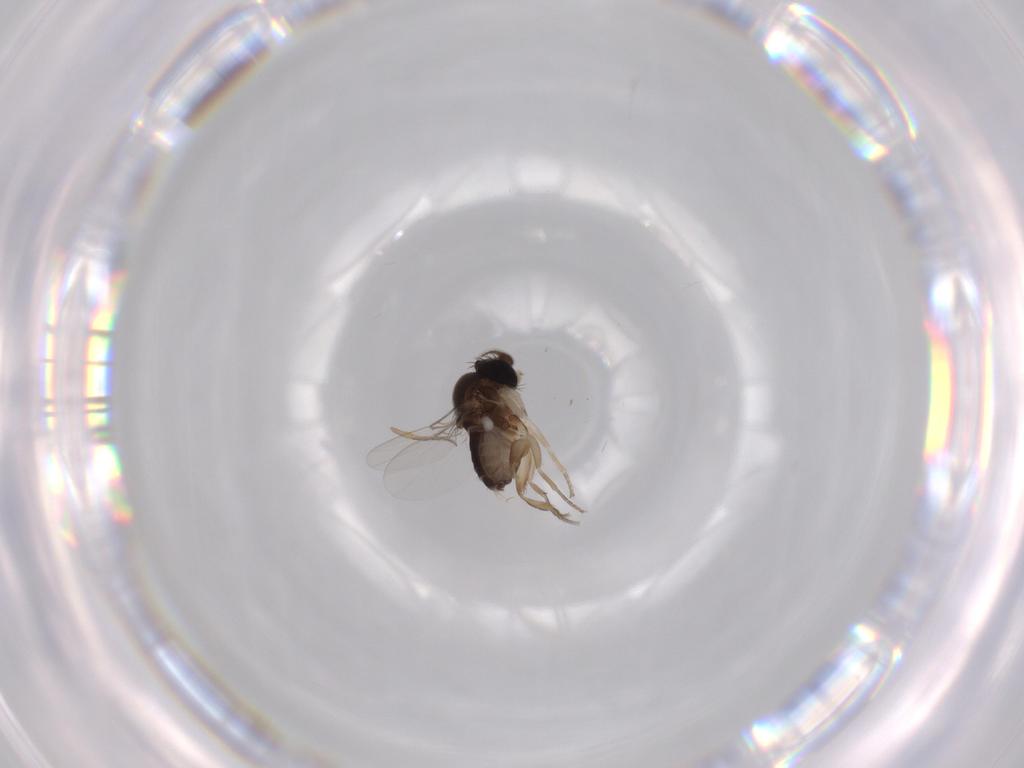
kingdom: Animalia
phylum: Arthropoda
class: Insecta
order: Diptera
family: Phoridae
